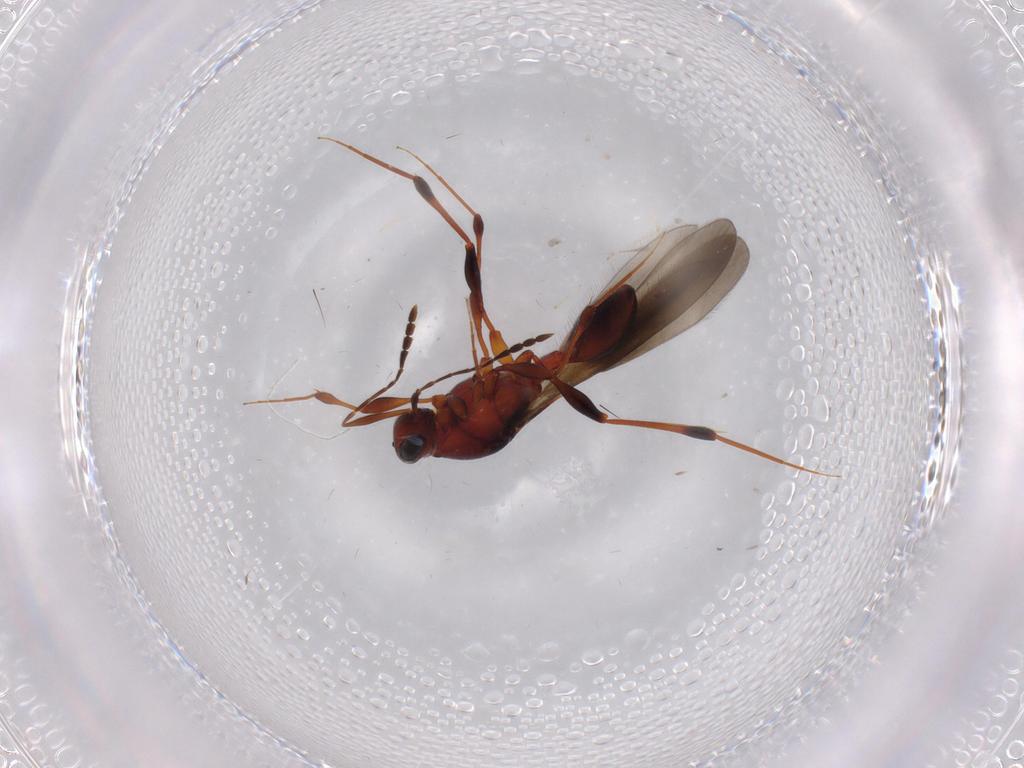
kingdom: Animalia
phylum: Arthropoda
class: Insecta
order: Hymenoptera
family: Platygastridae
